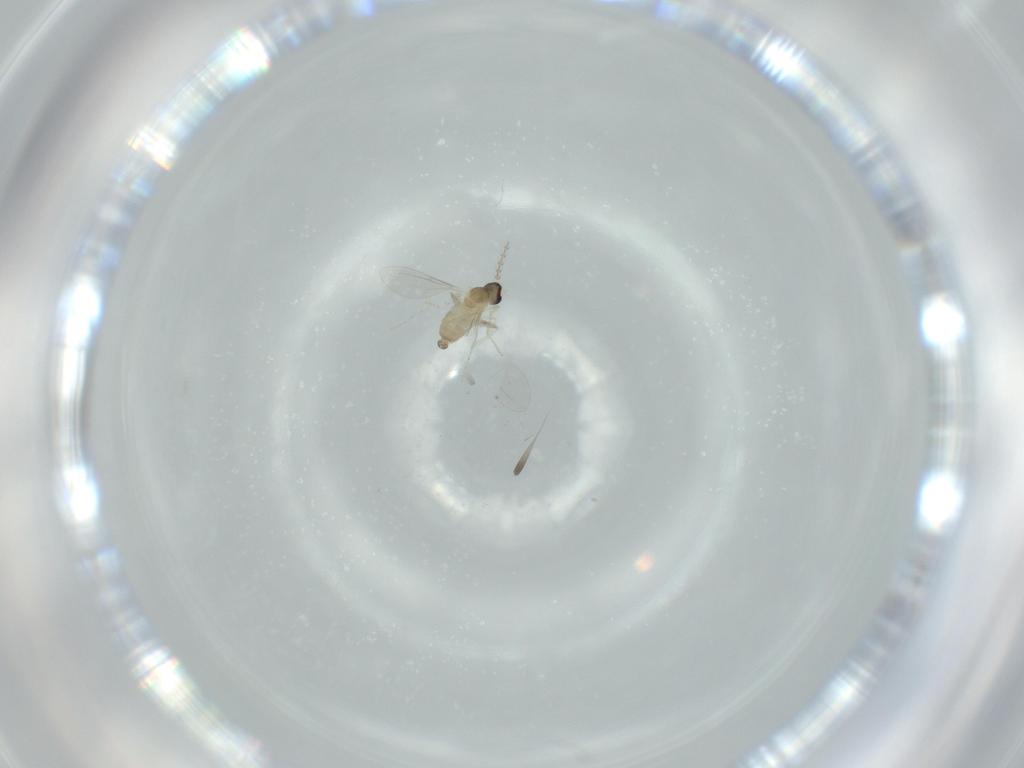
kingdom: Animalia
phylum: Arthropoda
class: Insecta
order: Diptera
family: Cecidomyiidae
